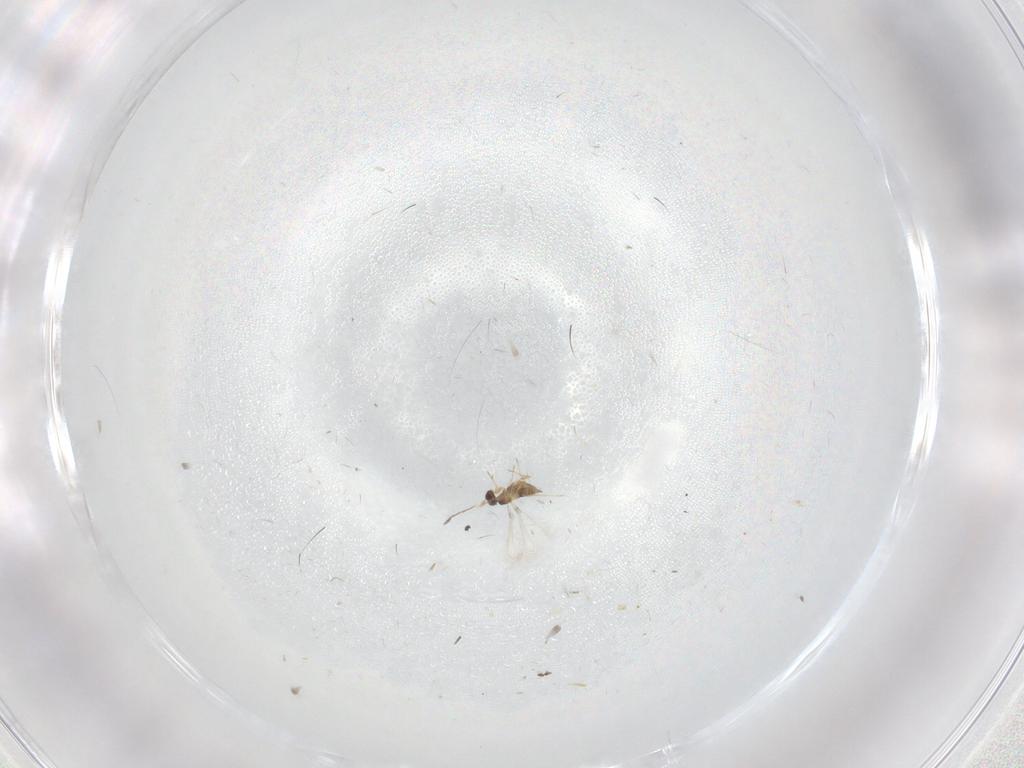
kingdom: Animalia
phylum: Arthropoda
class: Insecta
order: Hymenoptera
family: Mymaridae
